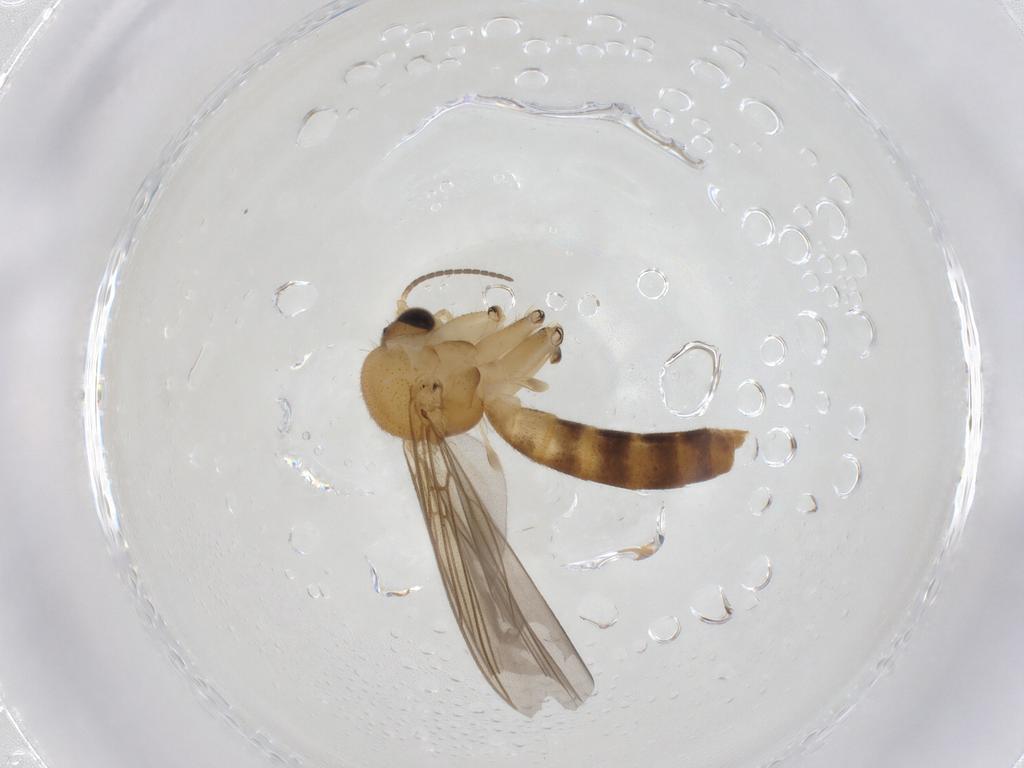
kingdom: Animalia
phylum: Arthropoda
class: Insecta
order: Diptera
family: Mycetophilidae
